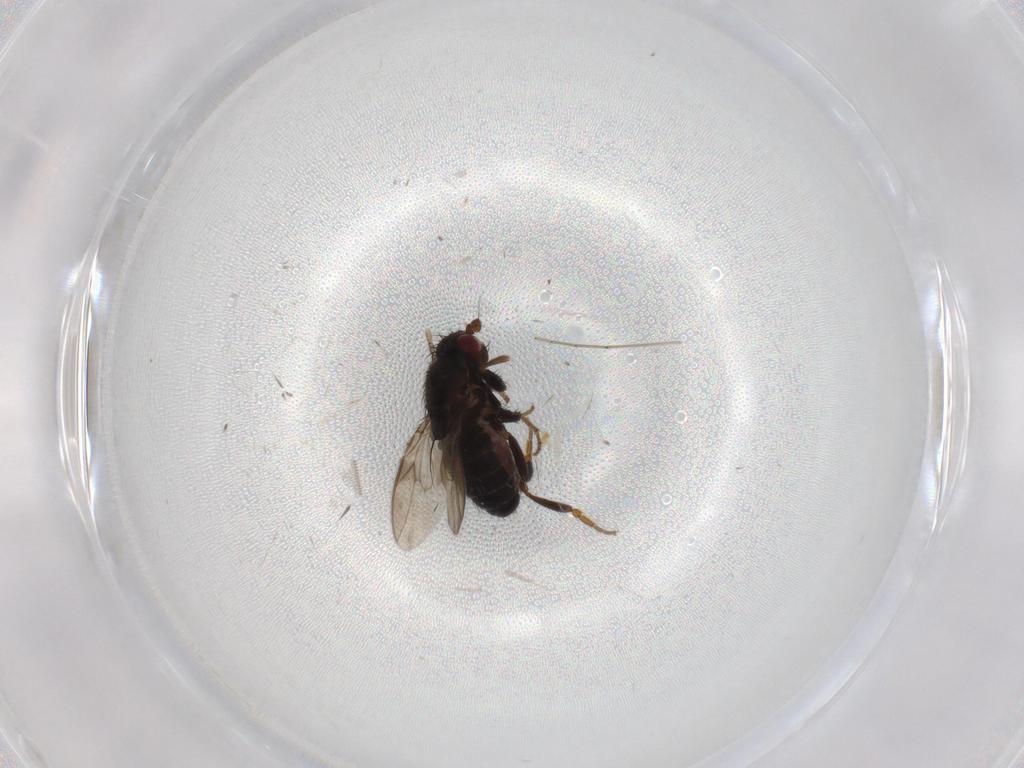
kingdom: Animalia
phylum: Arthropoda
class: Insecta
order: Diptera
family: Sphaeroceridae
